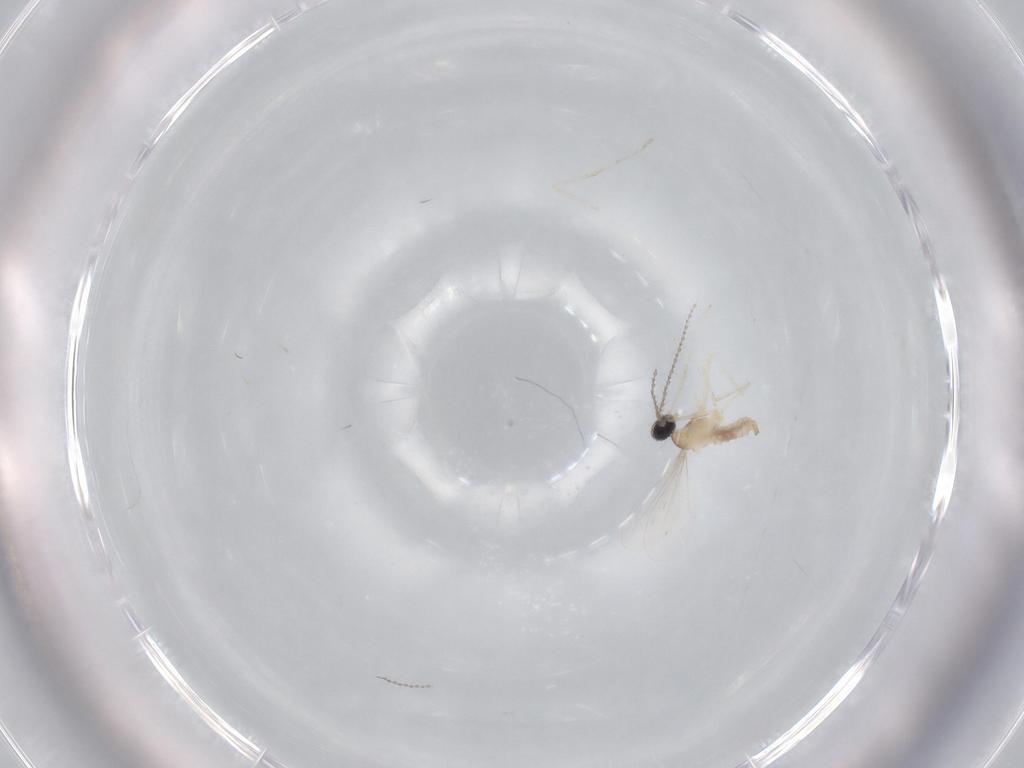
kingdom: Animalia
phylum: Arthropoda
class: Insecta
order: Diptera
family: Cecidomyiidae
